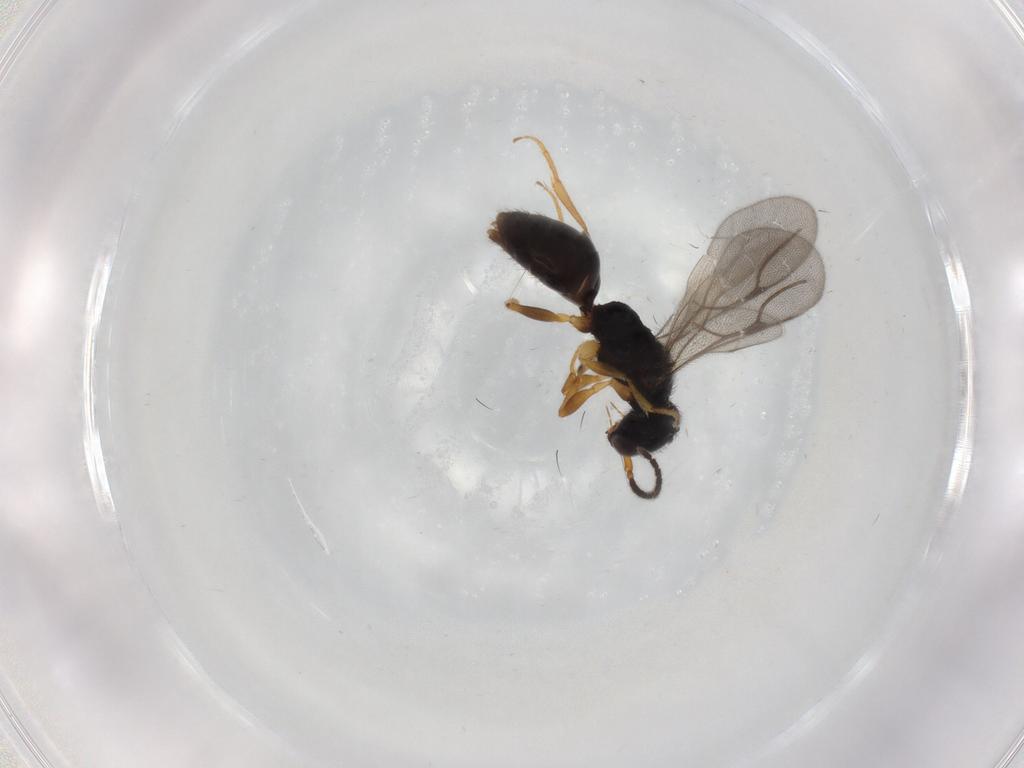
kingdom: Animalia
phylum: Arthropoda
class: Insecta
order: Hymenoptera
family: Bethylidae
